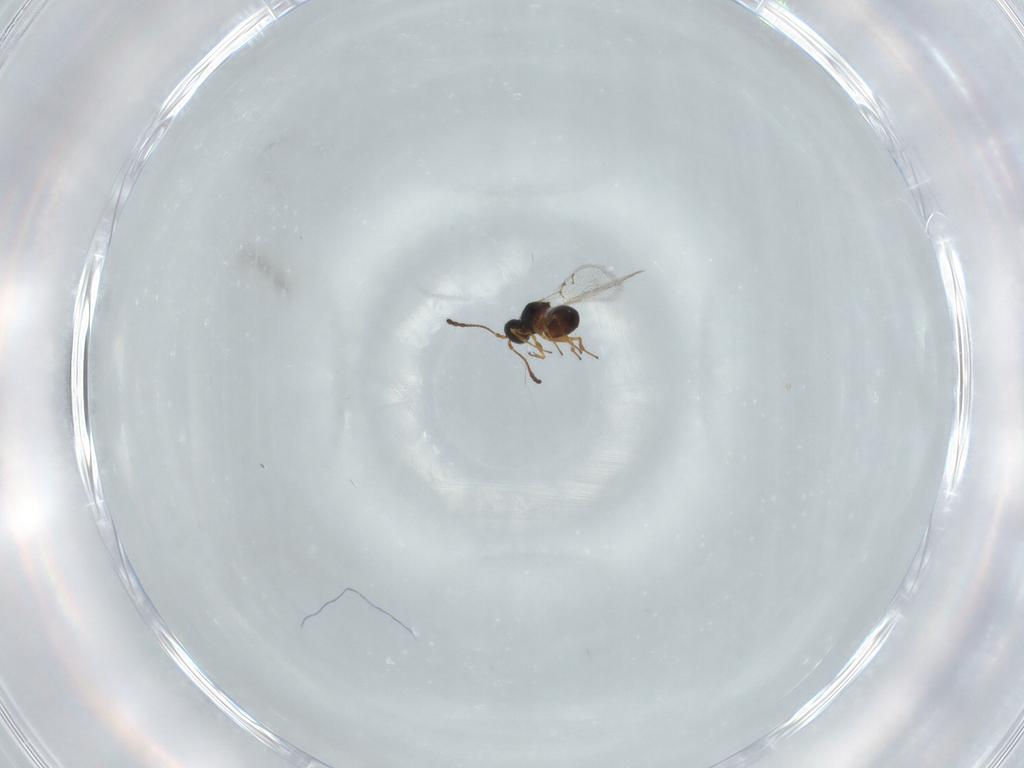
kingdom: Animalia
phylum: Arthropoda
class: Insecta
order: Hymenoptera
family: Figitidae
